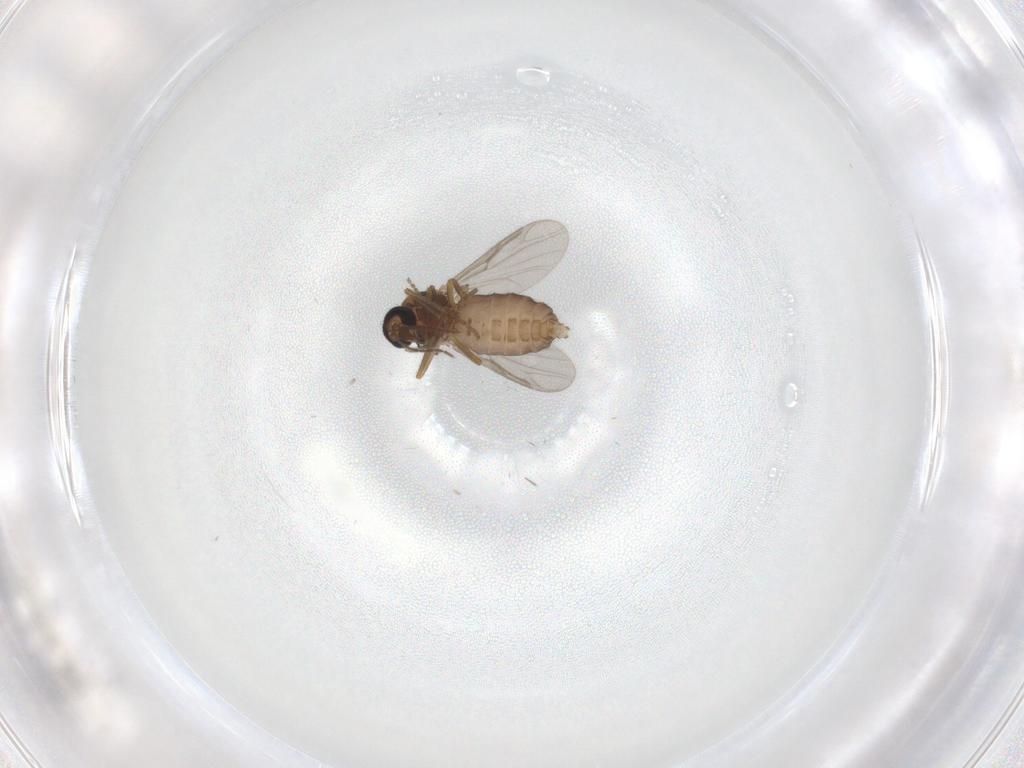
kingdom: Animalia
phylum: Arthropoda
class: Insecta
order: Diptera
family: Ceratopogonidae
